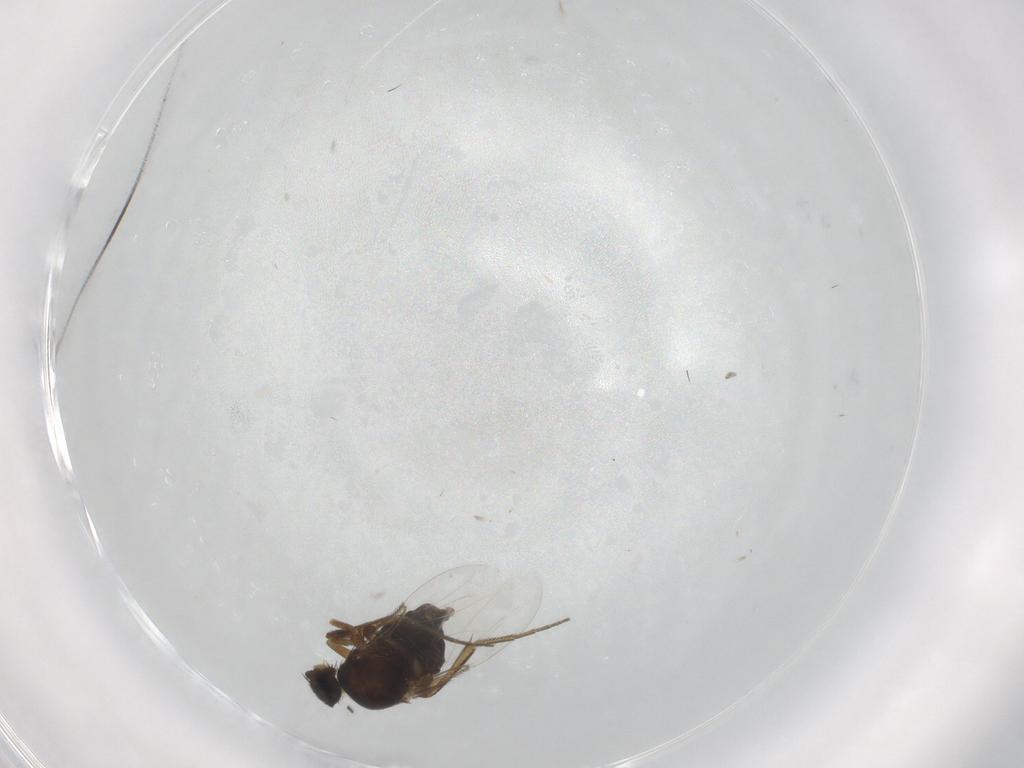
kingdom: Animalia
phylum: Arthropoda
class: Insecta
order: Diptera
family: Phoridae
